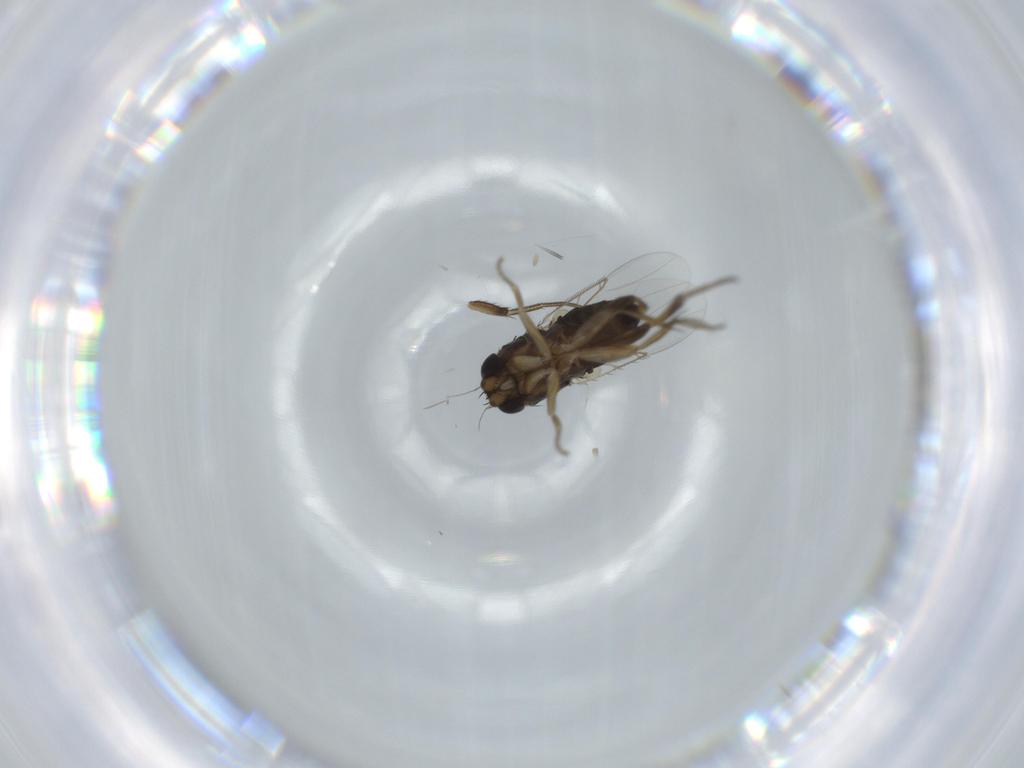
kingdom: Animalia
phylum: Arthropoda
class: Insecta
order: Diptera
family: Phoridae
